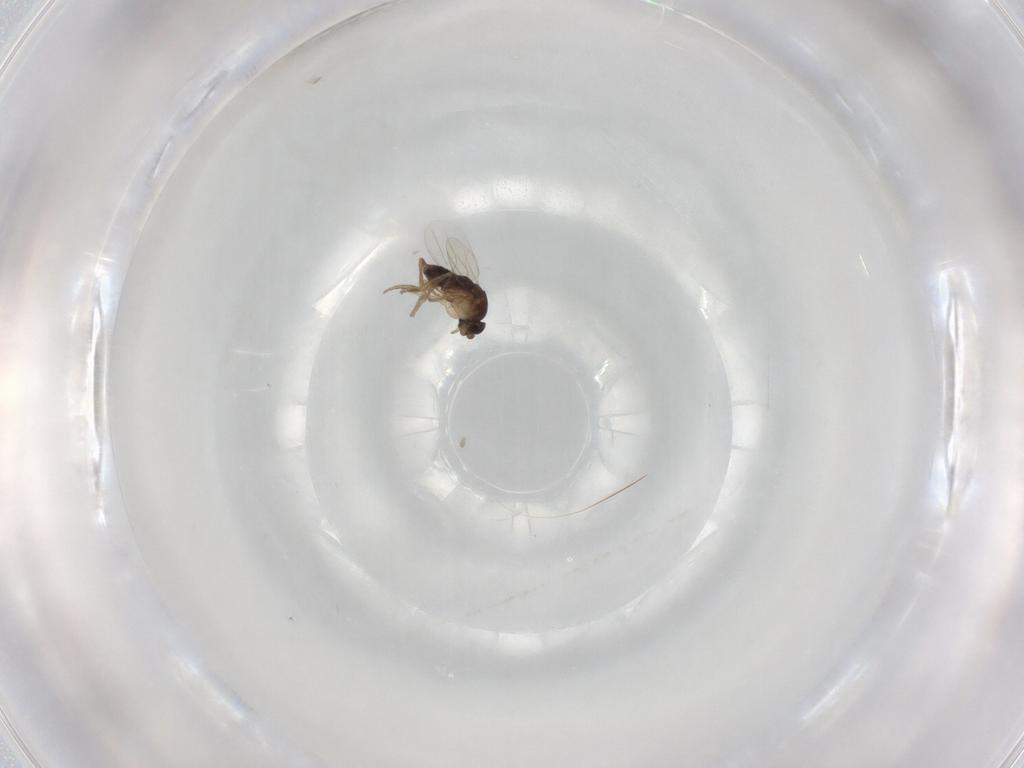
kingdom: Animalia
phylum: Arthropoda
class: Insecta
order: Diptera
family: Phoridae
